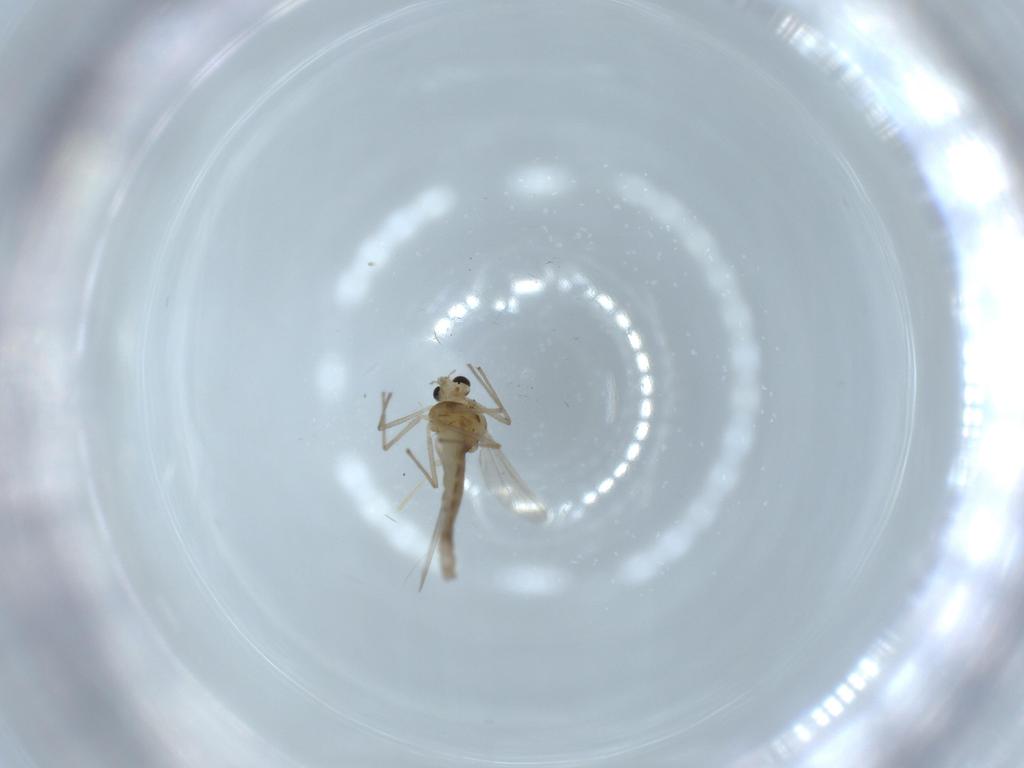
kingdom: Animalia
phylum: Arthropoda
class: Insecta
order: Diptera
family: Chironomidae
